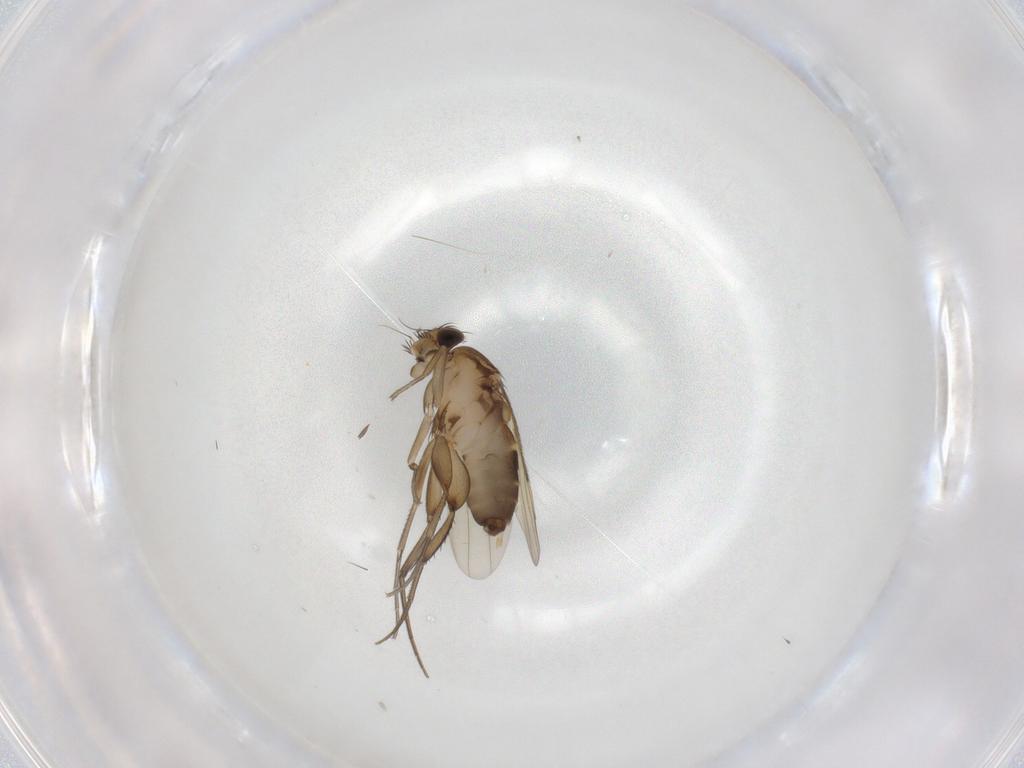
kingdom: Animalia
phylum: Arthropoda
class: Insecta
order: Diptera
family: Phoridae
